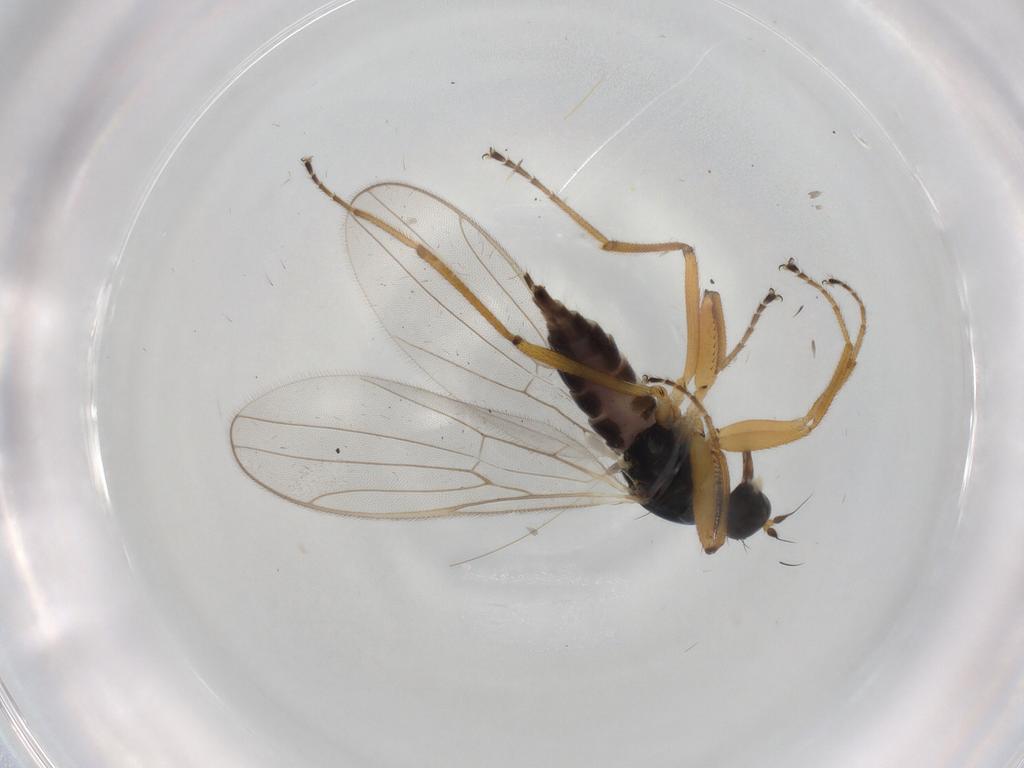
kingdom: Animalia
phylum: Arthropoda
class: Insecta
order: Diptera
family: Hybotidae
